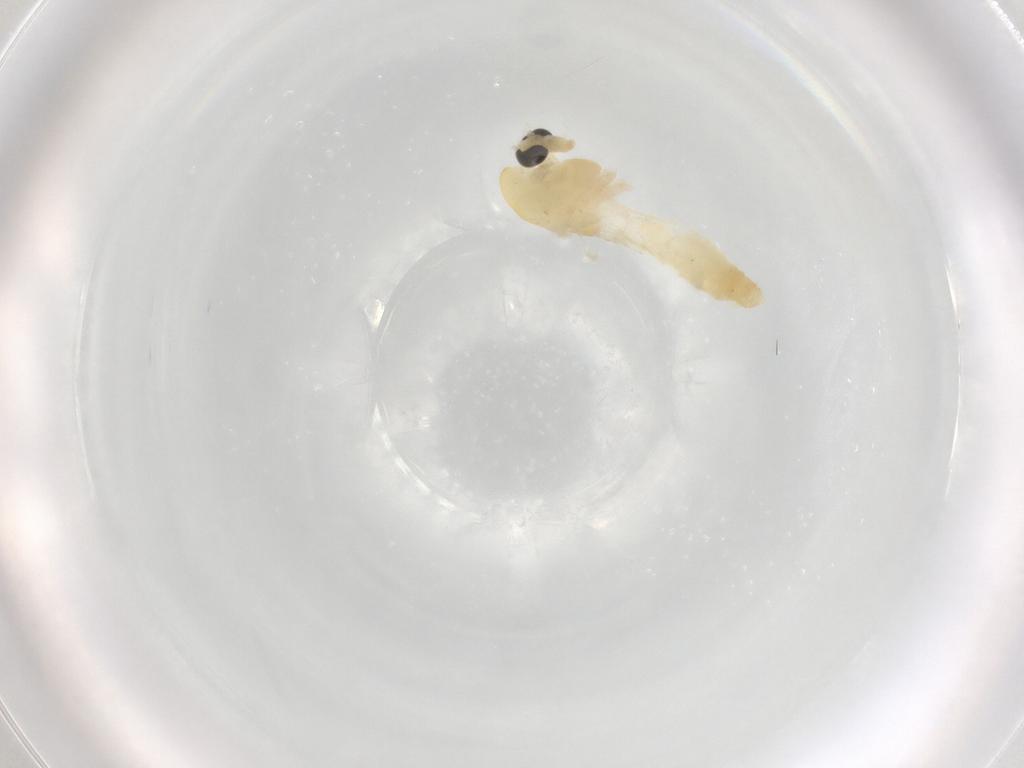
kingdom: Animalia
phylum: Arthropoda
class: Insecta
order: Diptera
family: Chironomidae
